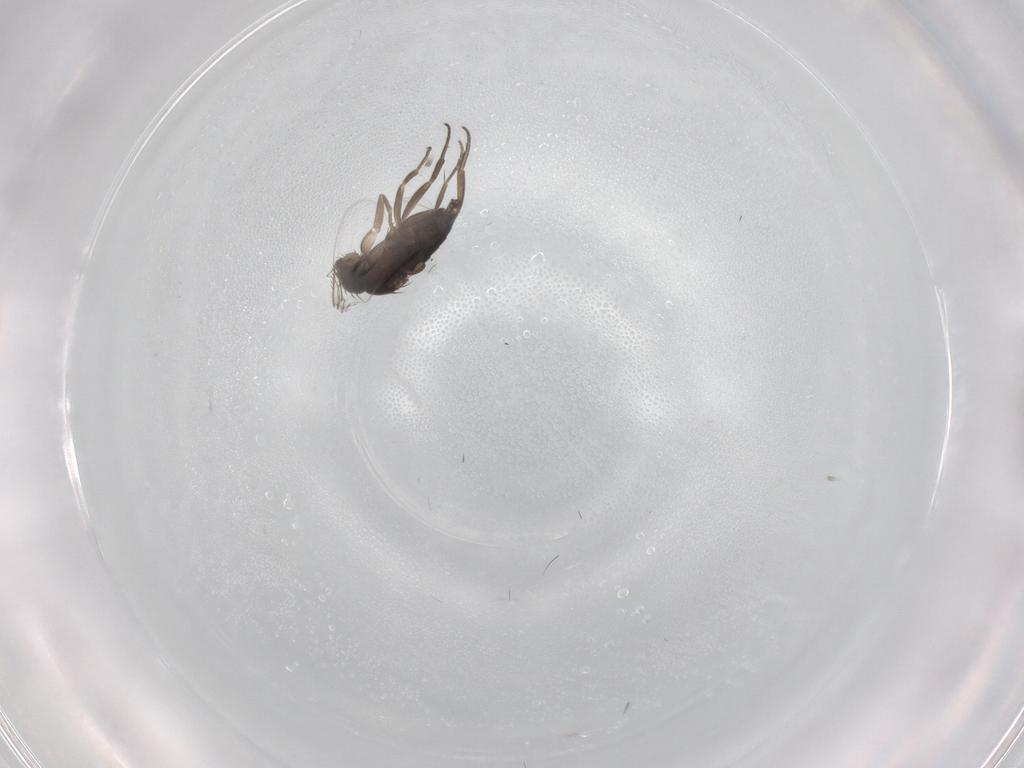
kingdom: Animalia
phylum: Arthropoda
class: Insecta
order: Diptera
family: Phoridae
